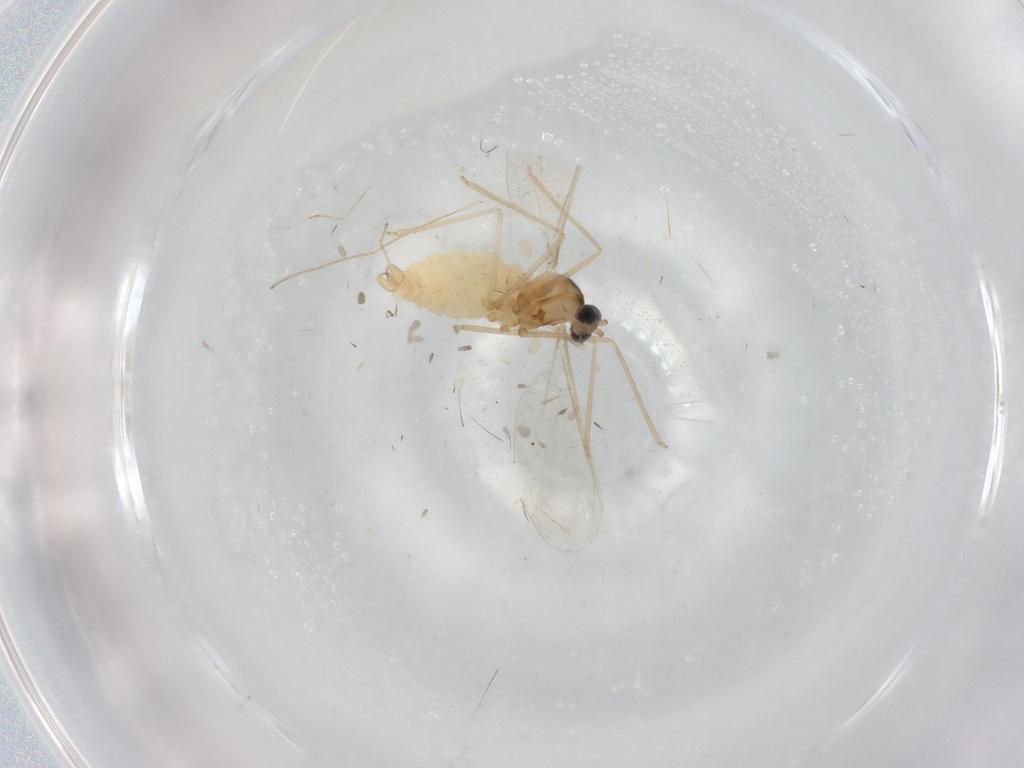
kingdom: Animalia
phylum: Arthropoda
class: Insecta
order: Diptera
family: Cecidomyiidae
